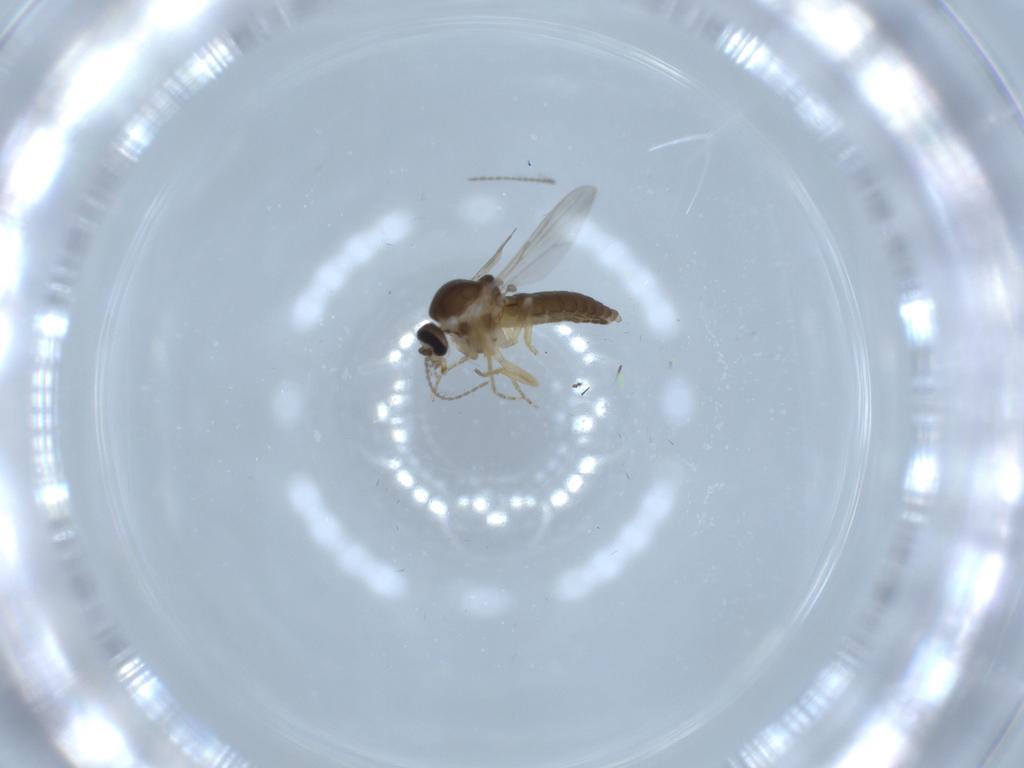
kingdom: Animalia
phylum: Arthropoda
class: Insecta
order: Diptera
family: Ceratopogonidae
